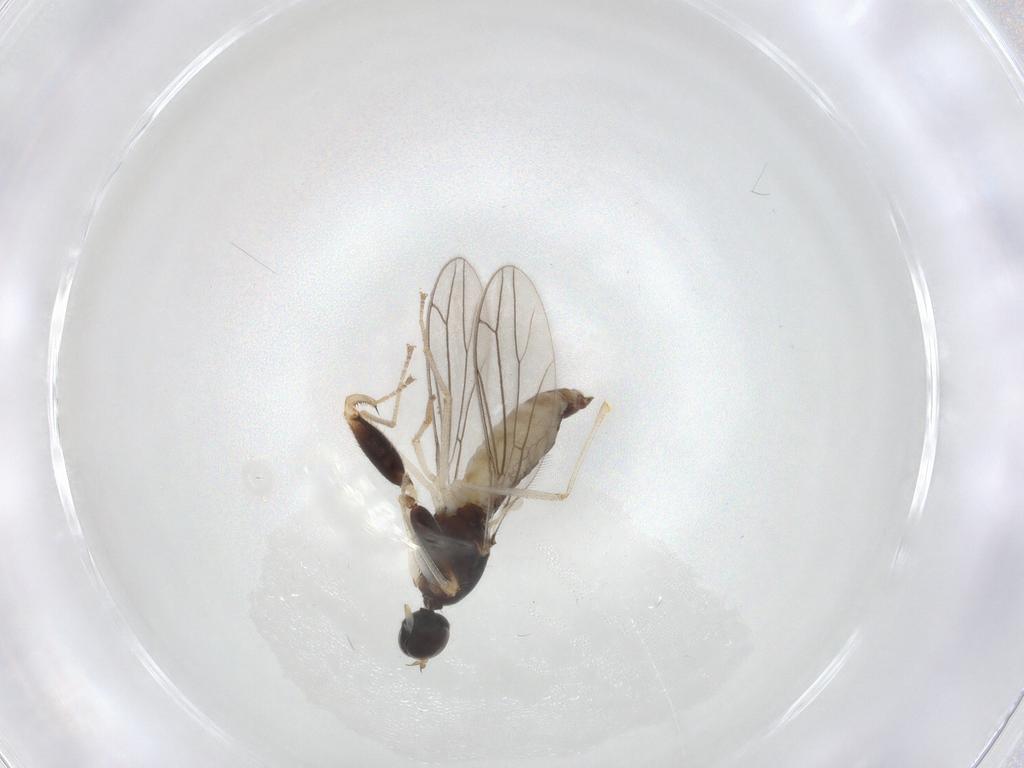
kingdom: Animalia
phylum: Arthropoda
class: Insecta
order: Diptera
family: Empididae
